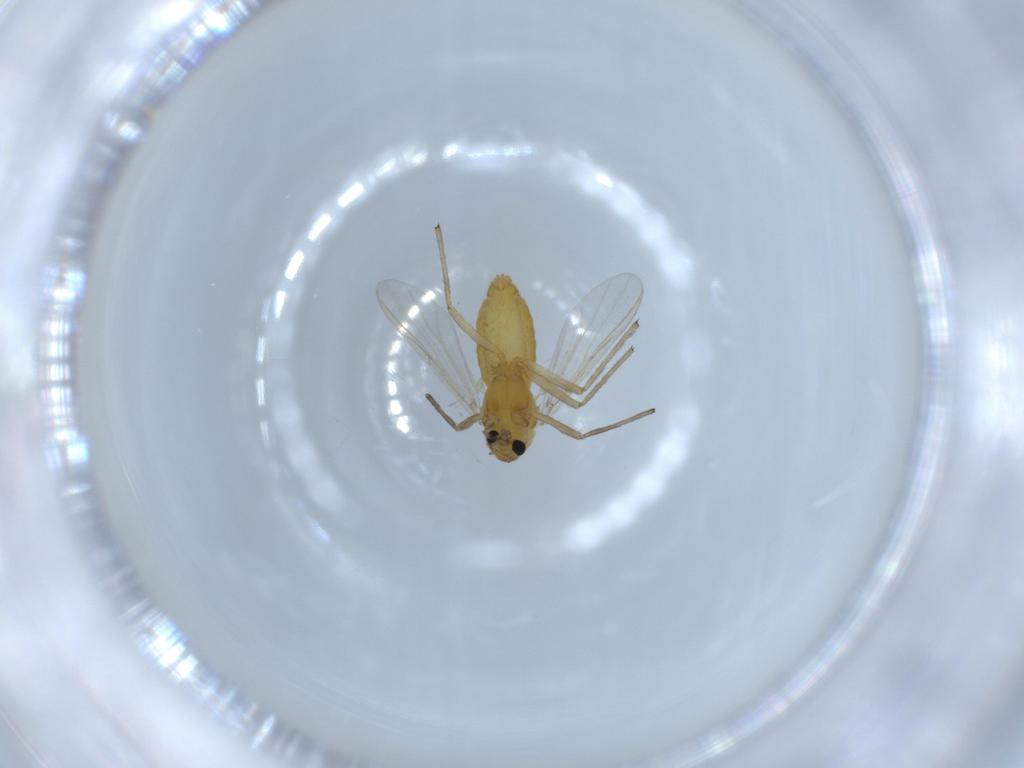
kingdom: Animalia
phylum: Arthropoda
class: Insecta
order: Diptera
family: Chironomidae
